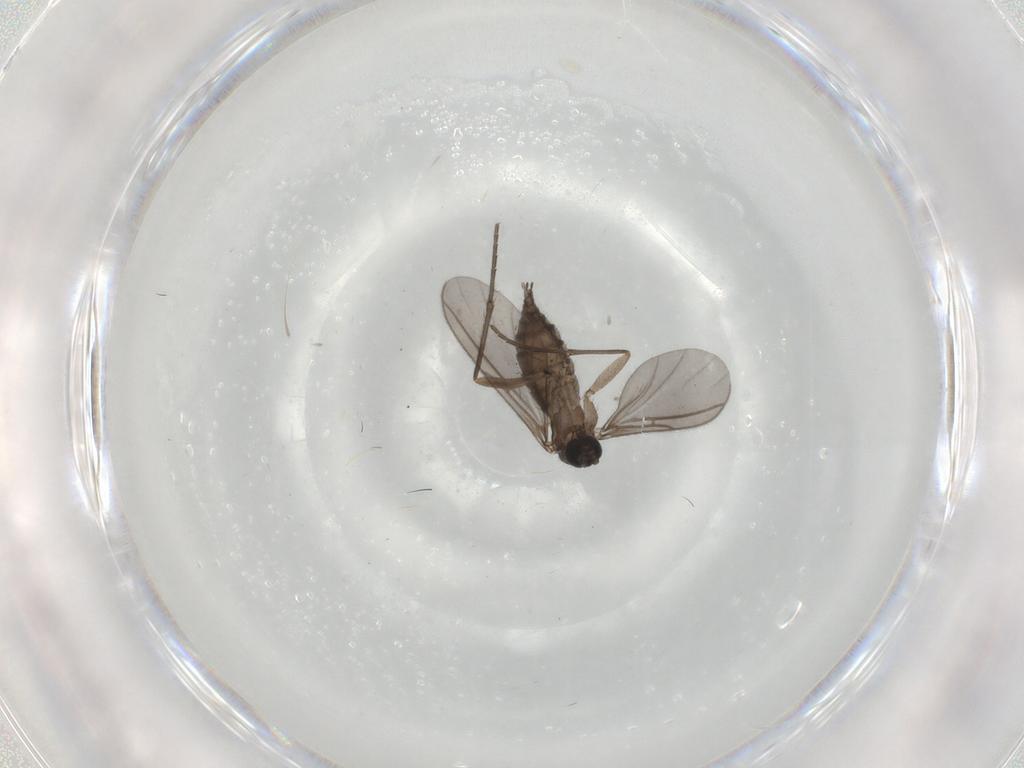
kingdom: Animalia
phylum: Arthropoda
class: Insecta
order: Diptera
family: Sciaridae
